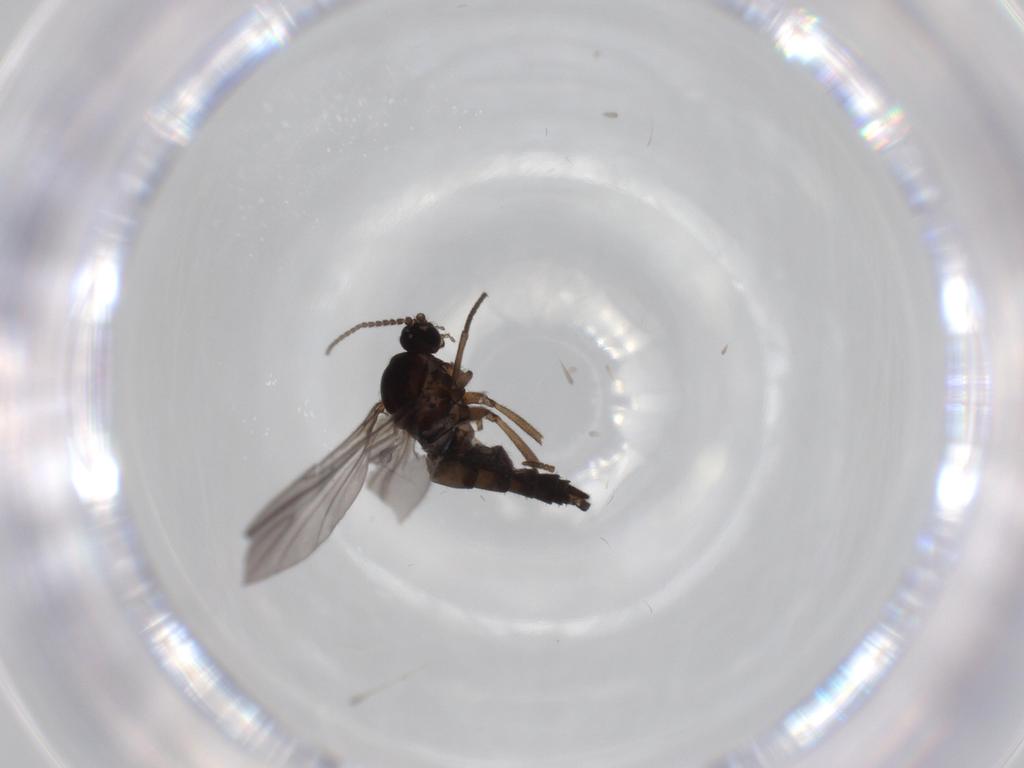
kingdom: Animalia
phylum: Arthropoda
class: Insecta
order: Diptera
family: Sciaridae
